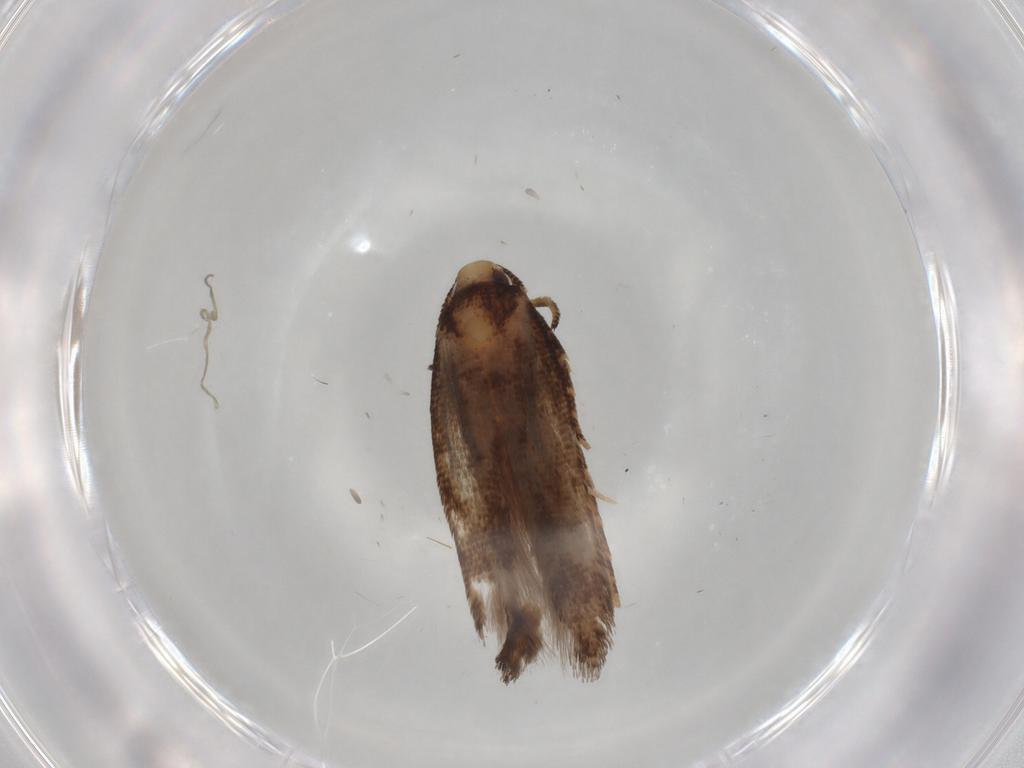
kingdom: Animalia
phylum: Arthropoda
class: Insecta
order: Lepidoptera
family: Cosmopterigidae
